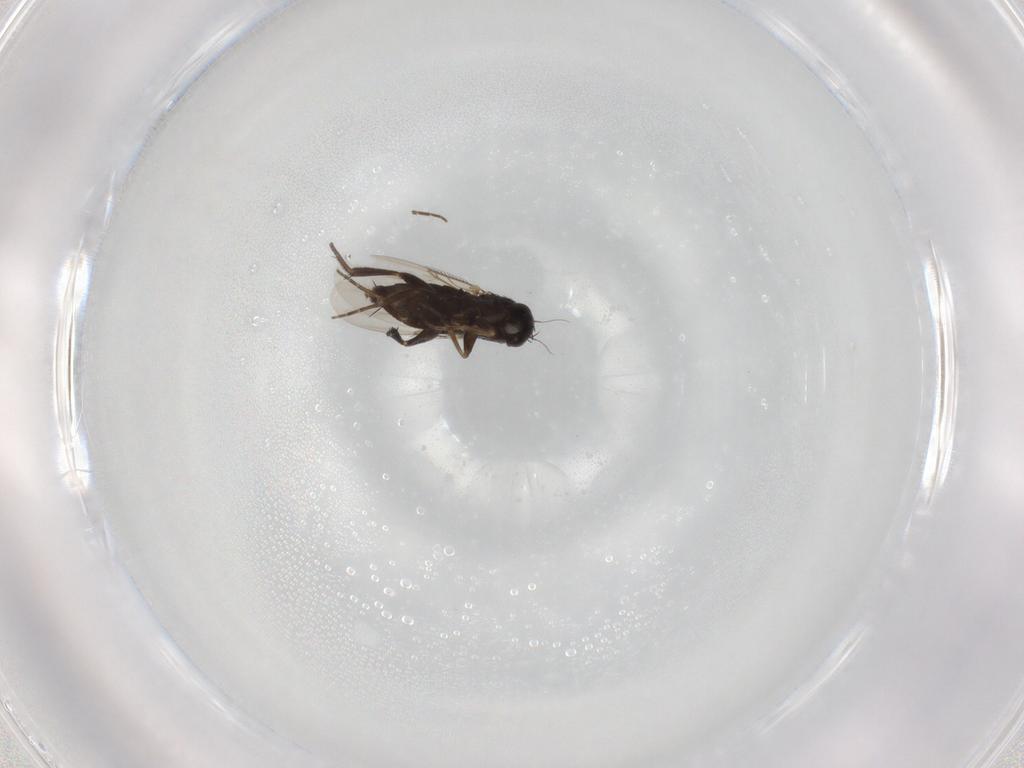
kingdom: Animalia
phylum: Arthropoda
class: Insecta
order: Diptera
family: Phoridae
